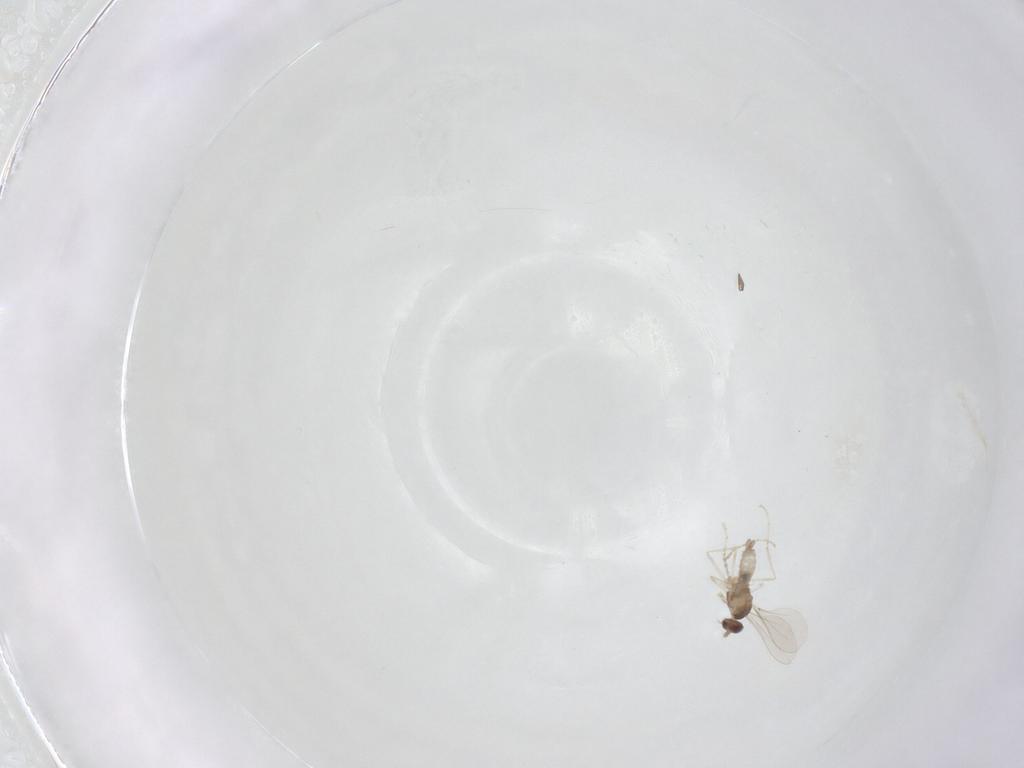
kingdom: Animalia
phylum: Arthropoda
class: Insecta
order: Diptera
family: Cecidomyiidae
